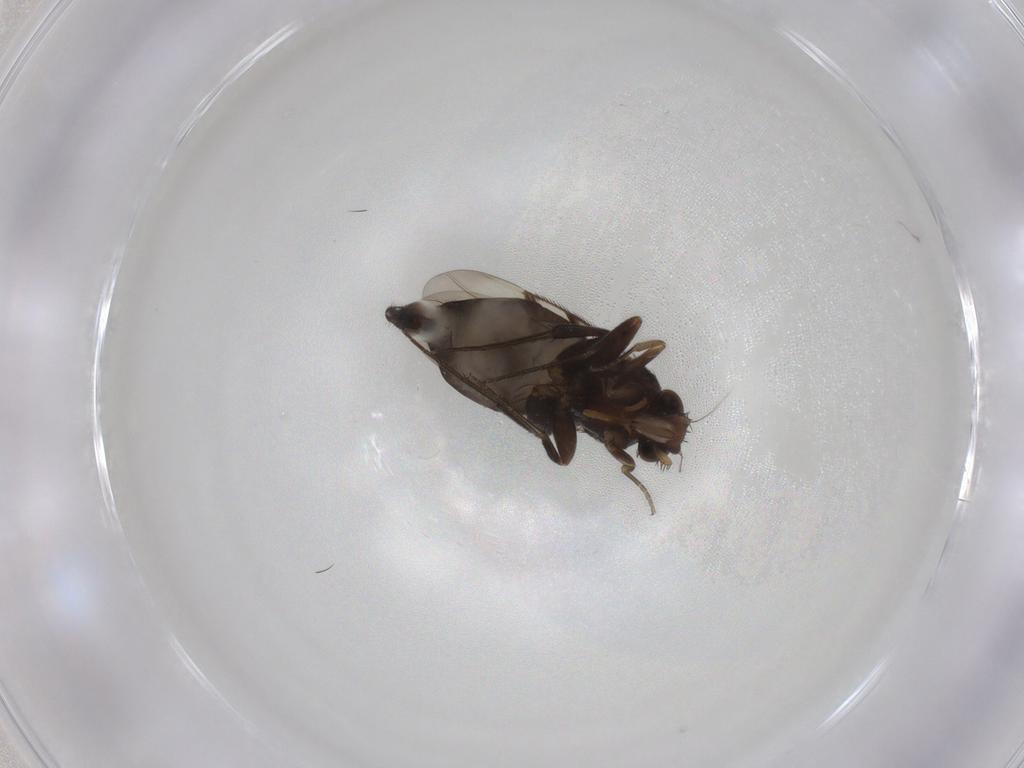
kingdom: Animalia
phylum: Arthropoda
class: Insecta
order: Diptera
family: Phoridae
